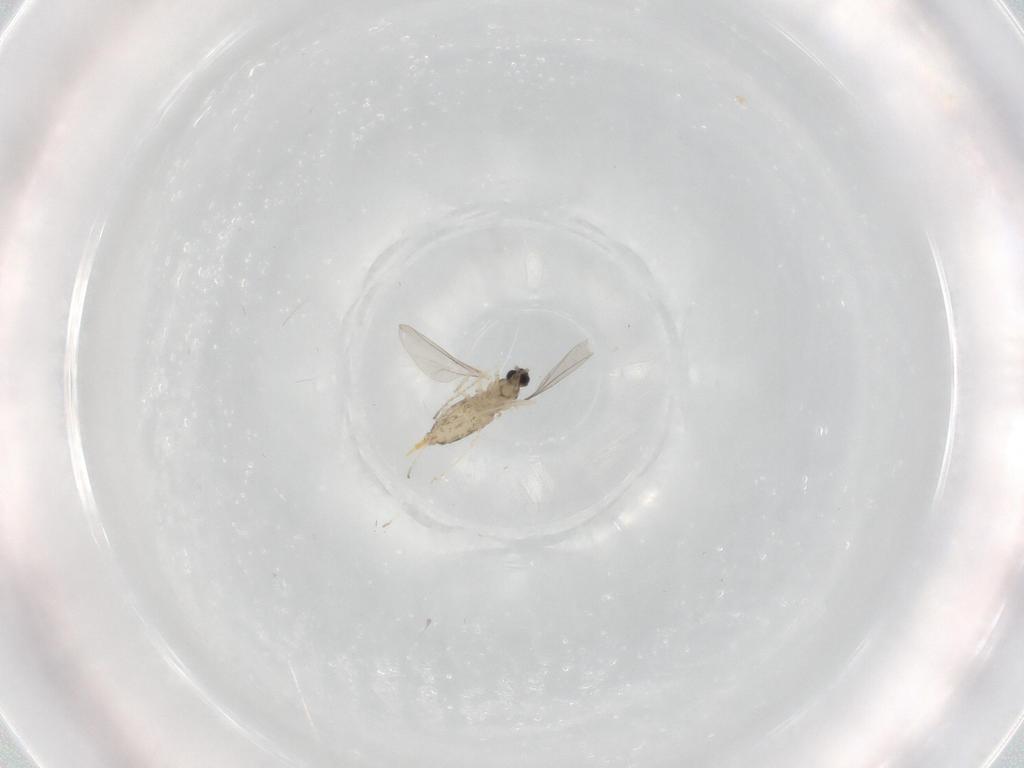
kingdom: Animalia
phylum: Arthropoda
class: Insecta
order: Diptera
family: Cecidomyiidae
